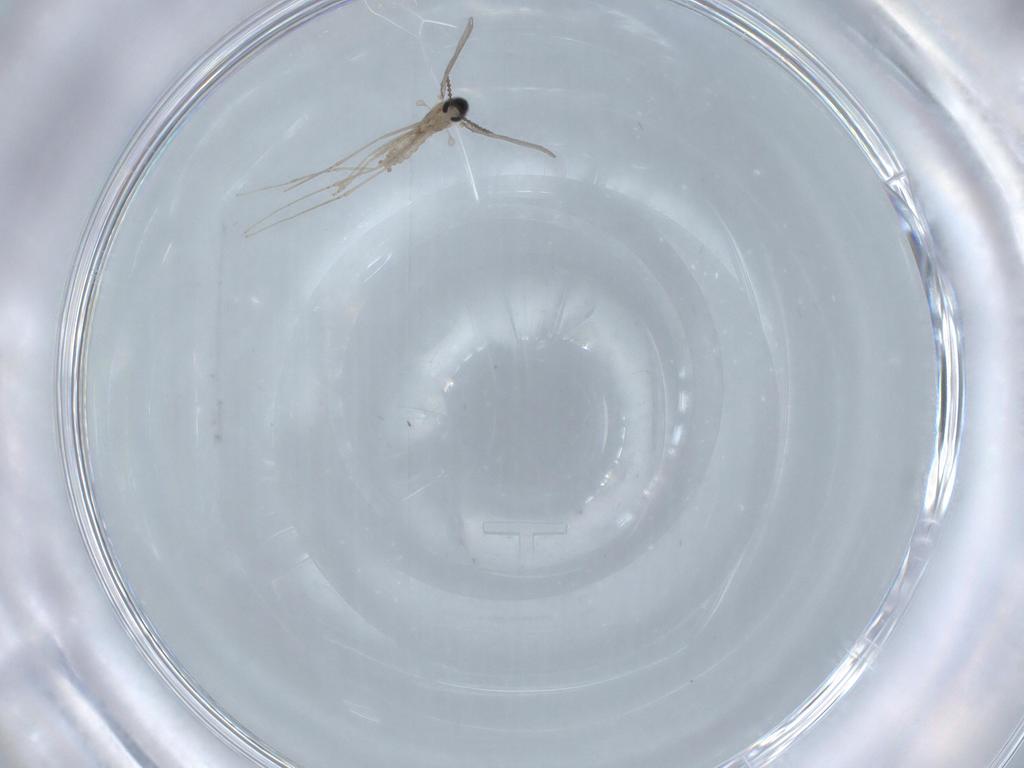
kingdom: Animalia
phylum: Arthropoda
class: Insecta
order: Diptera
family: Cecidomyiidae
